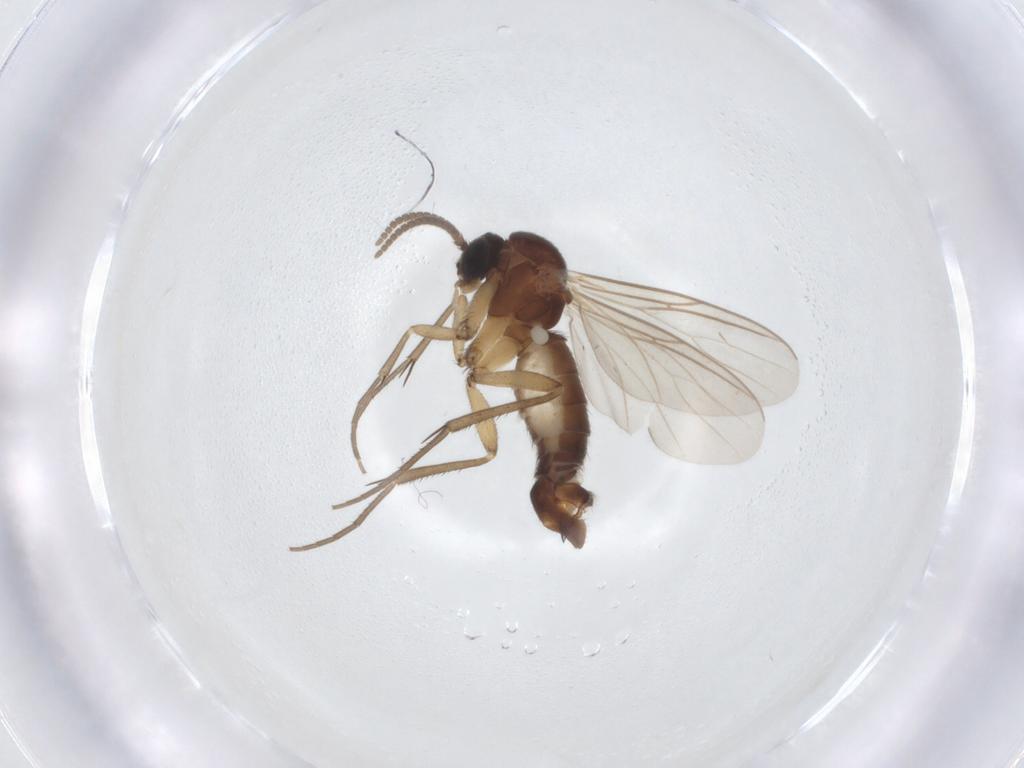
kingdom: Animalia
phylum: Arthropoda
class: Insecta
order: Diptera
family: Mycetophilidae
